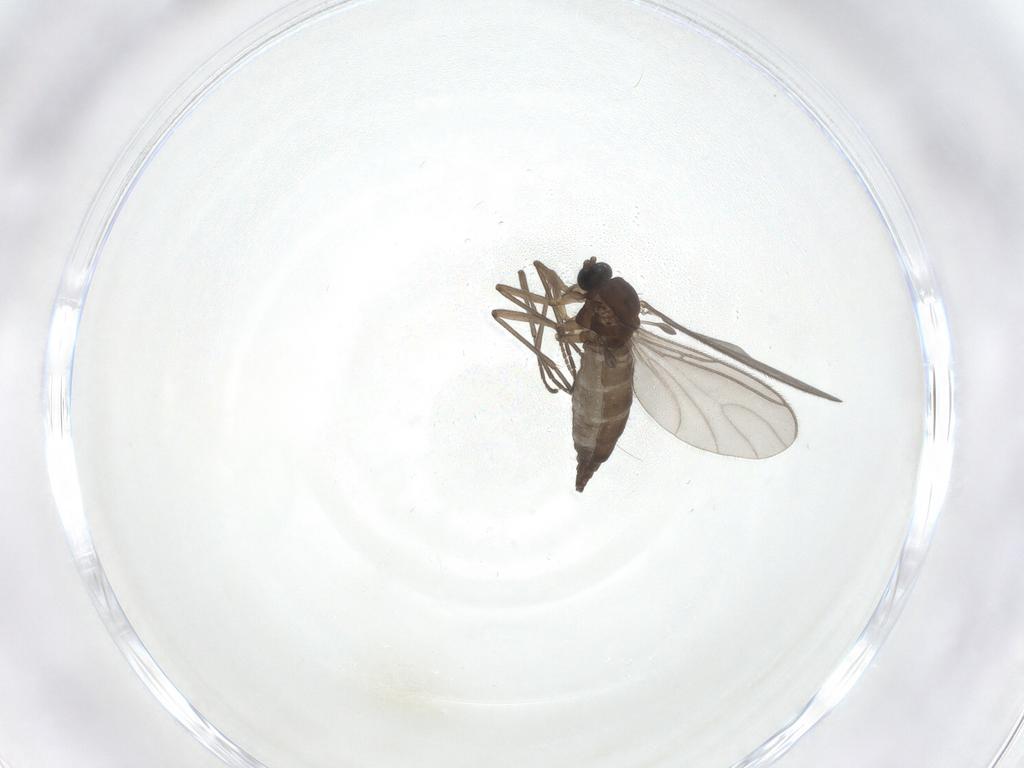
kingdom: Animalia
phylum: Arthropoda
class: Insecta
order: Diptera
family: Sciaridae
